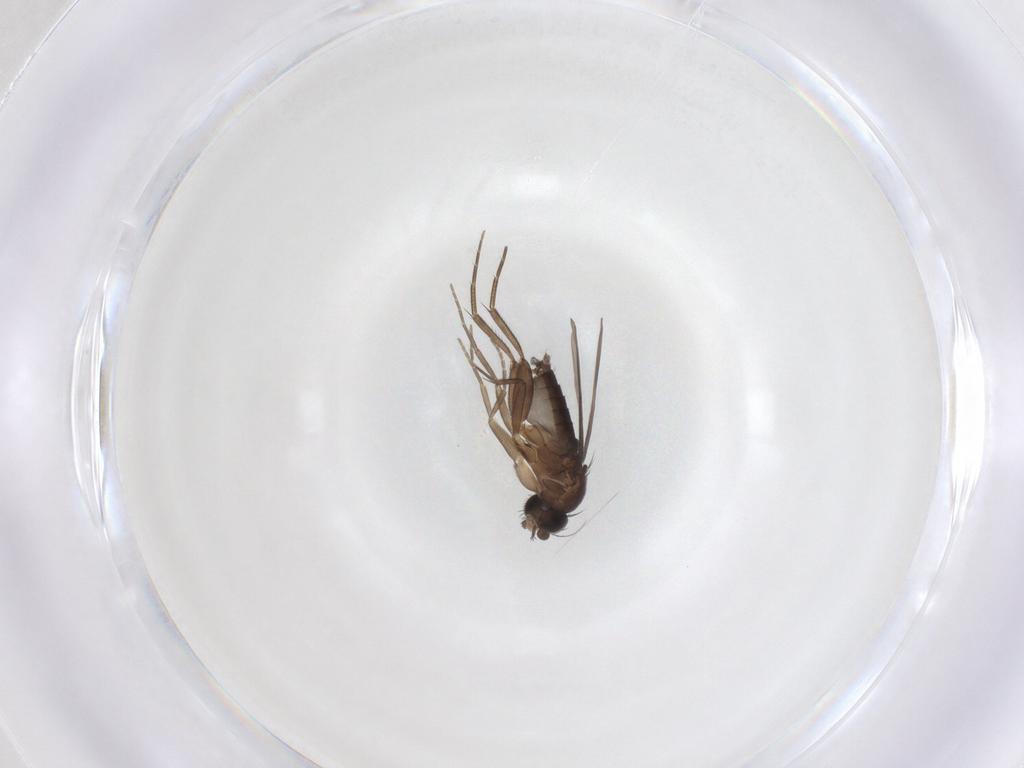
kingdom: Animalia
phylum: Arthropoda
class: Insecta
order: Diptera
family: Phoridae
